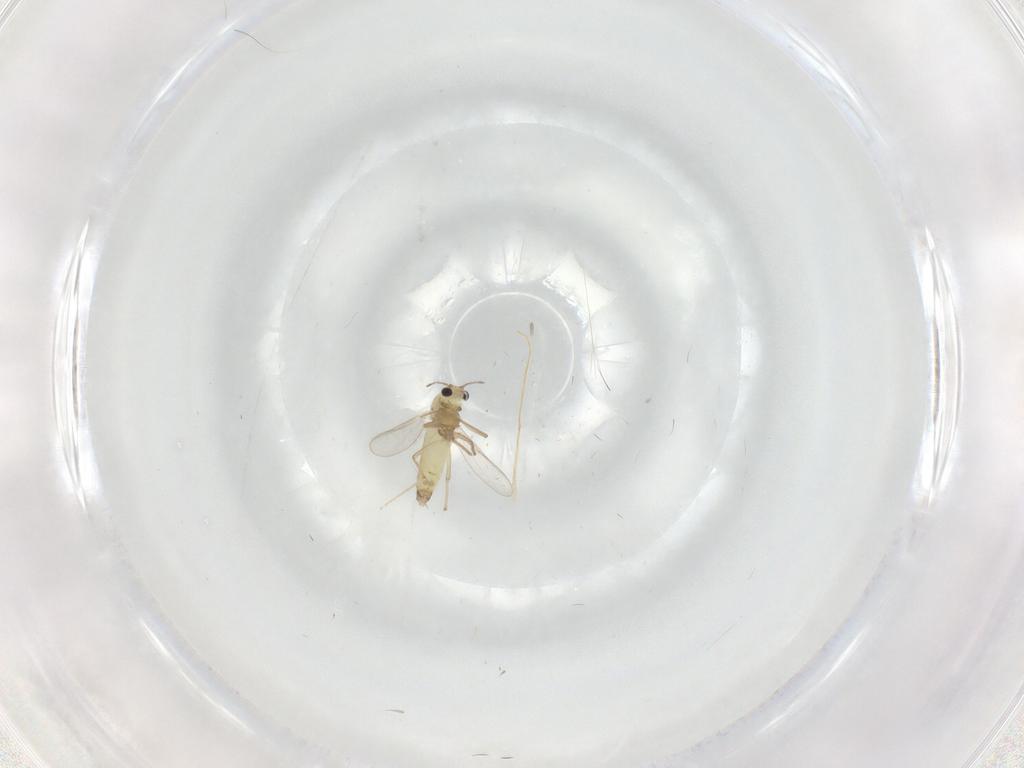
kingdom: Animalia
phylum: Arthropoda
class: Insecta
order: Diptera
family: Chironomidae
